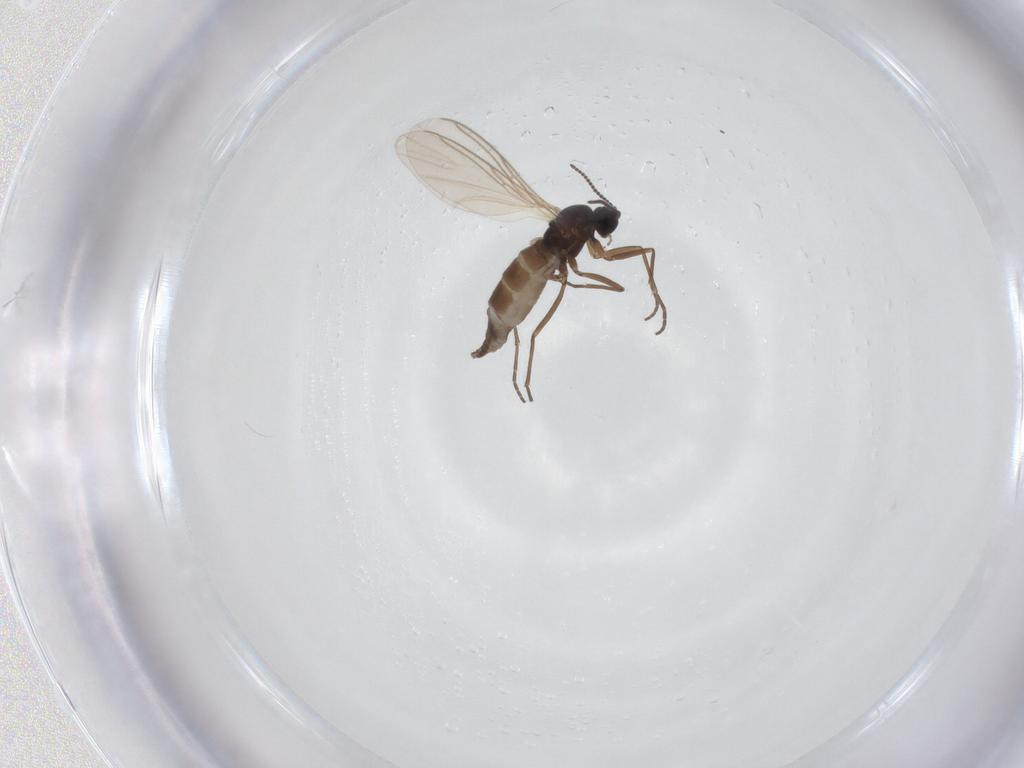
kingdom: Animalia
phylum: Arthropoda
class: Insecta
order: Diptera
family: Sciaridae
